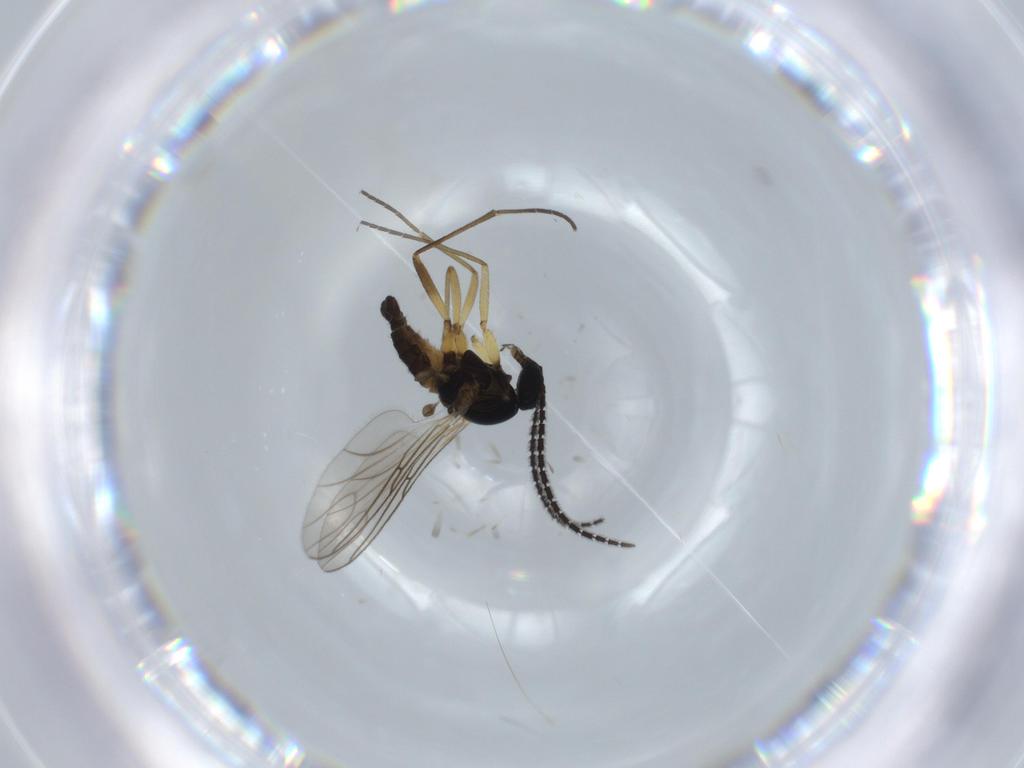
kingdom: Animalia
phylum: Arthropoda
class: Insecta
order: Diptera
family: Sciaridae
